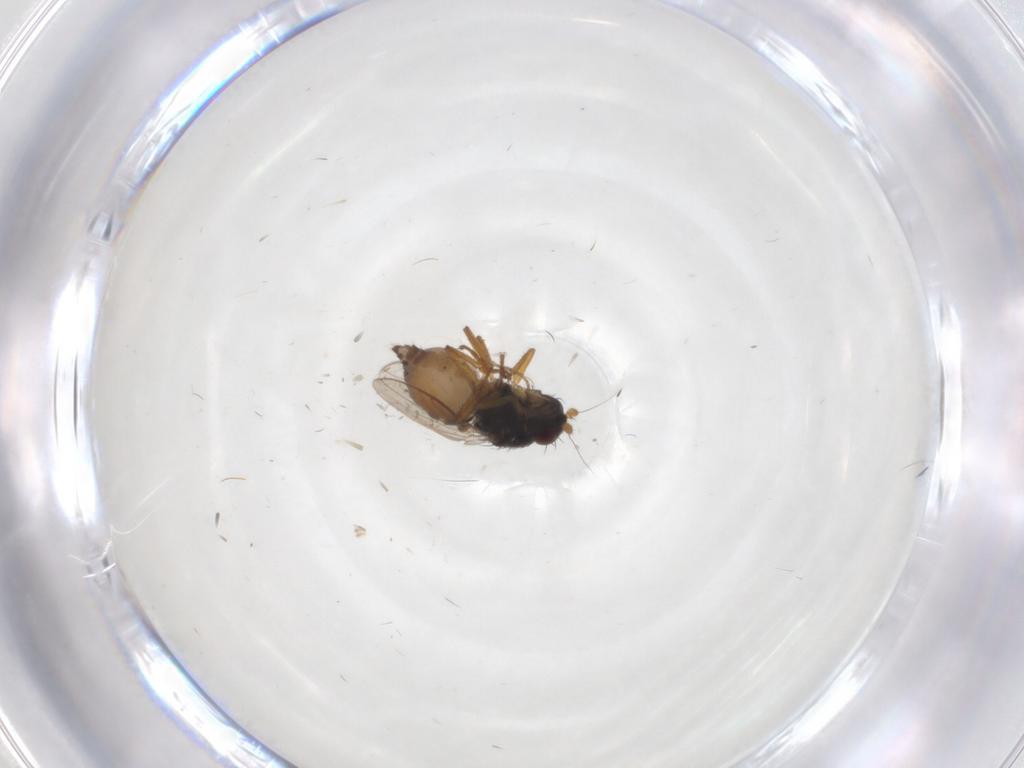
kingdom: Animalia
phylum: Arthropoda
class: Insecta
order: Diptera
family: Sphaeroceridae
